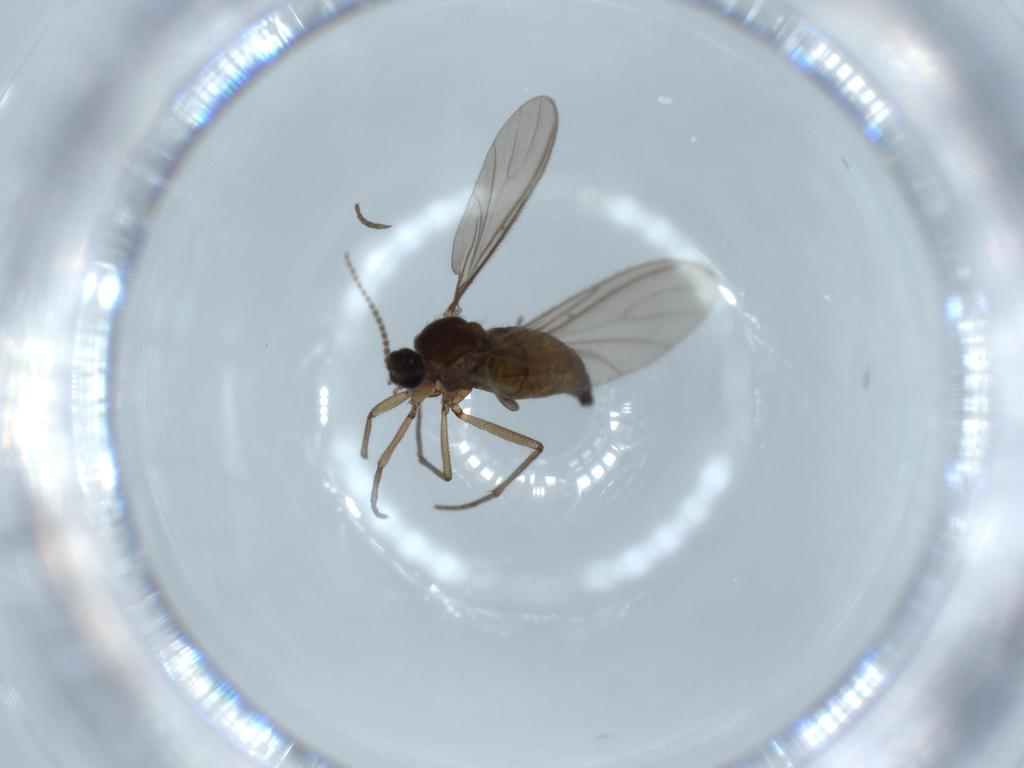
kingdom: Animalia
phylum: Arthropoda
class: Insecta
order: Diptera
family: Sciaridae
